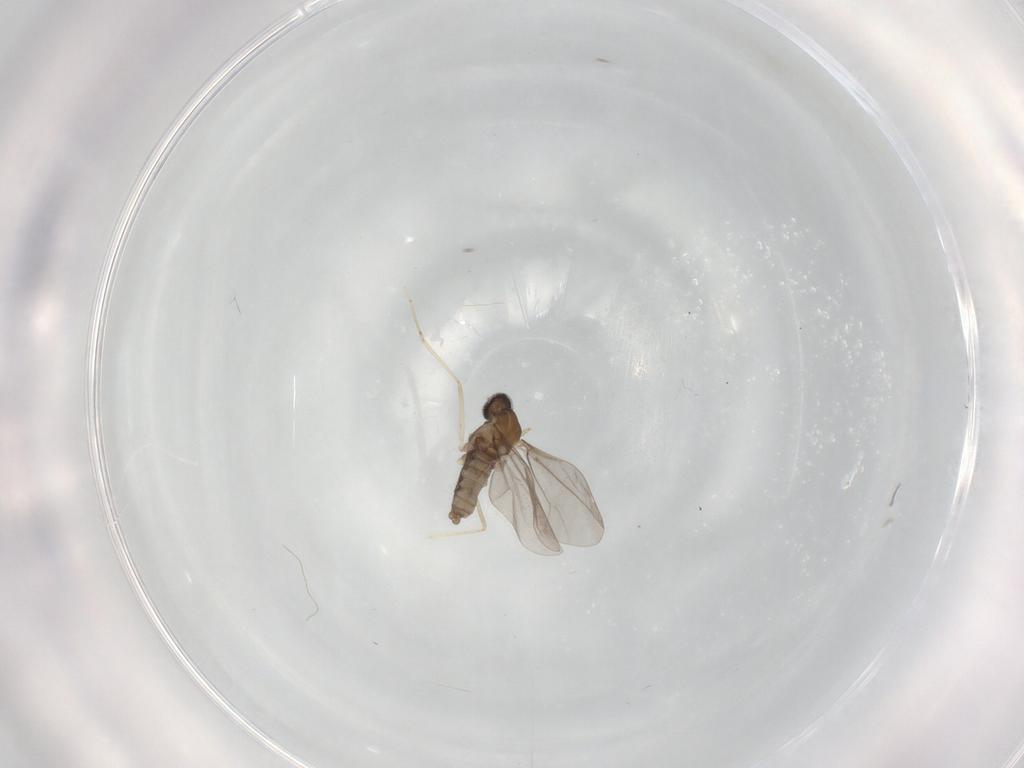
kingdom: Animalia
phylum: Arthropoda
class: Insecta
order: Diptera
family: Cecidomyiidae
